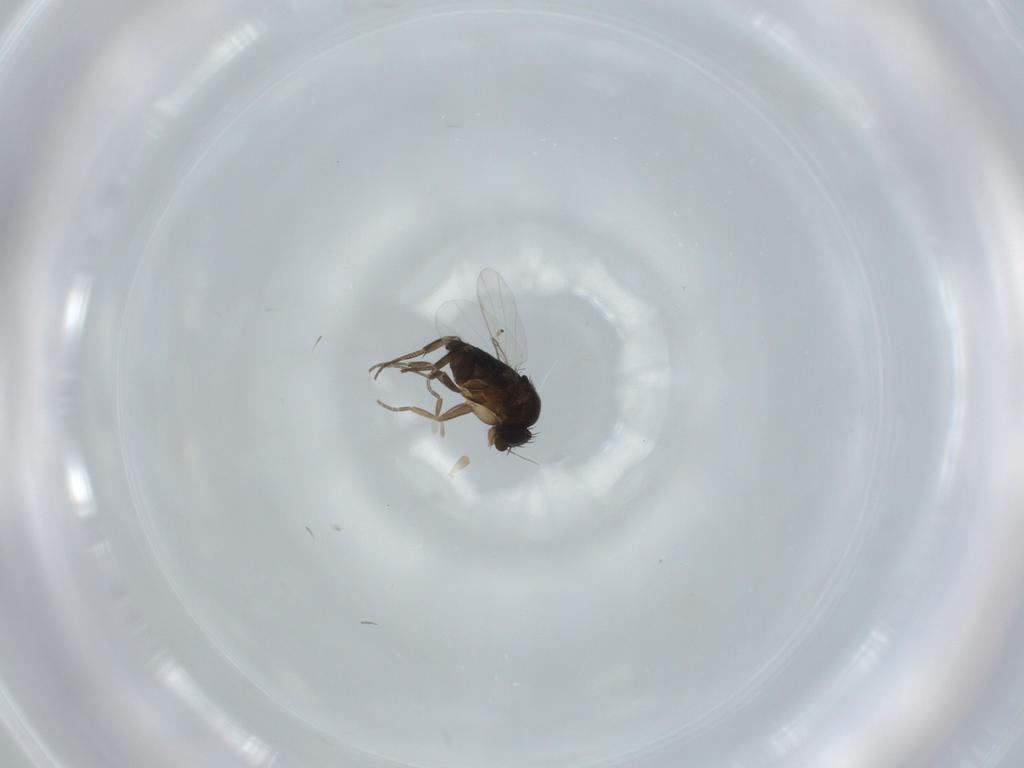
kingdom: Animalia
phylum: Arthropoda
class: Insecta
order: Diptera
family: Phoridae
